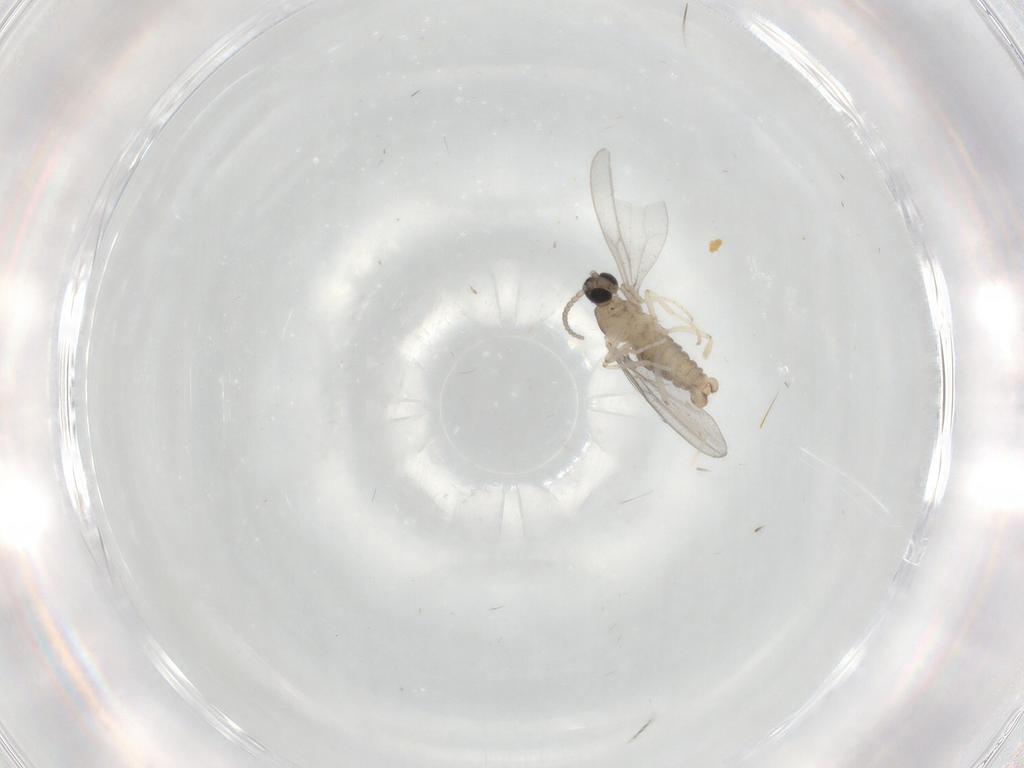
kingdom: Animalia
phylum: Arthropoda
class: Insecta
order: Diptera
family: Cecidomyiidae
